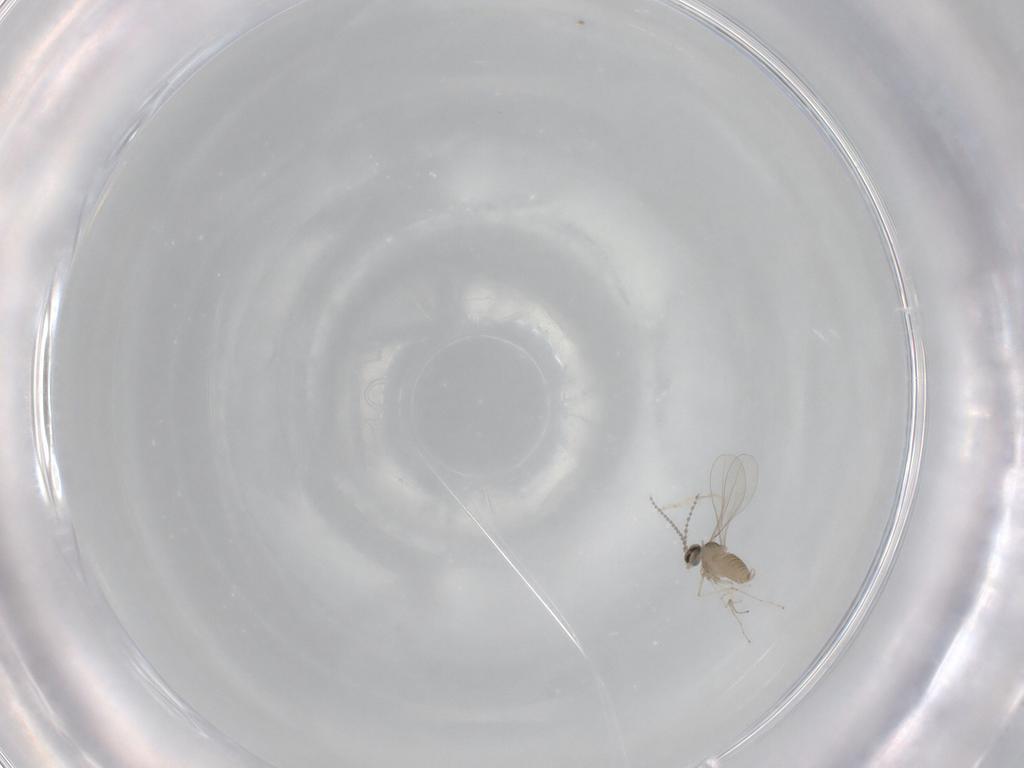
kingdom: Animalia
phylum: Arthropoda
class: Insecta
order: Diptera
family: Cecidomyiidae
